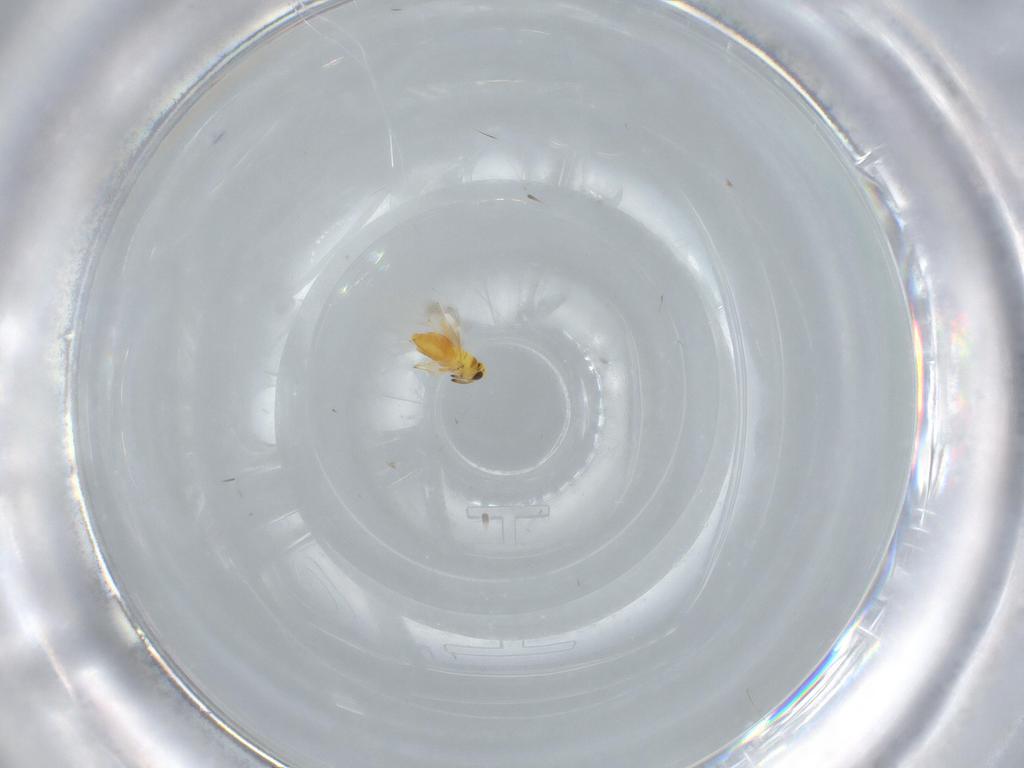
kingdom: Animalia
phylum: Arthropoda
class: Insecta
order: Hymenoptera
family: Signiphoridae
